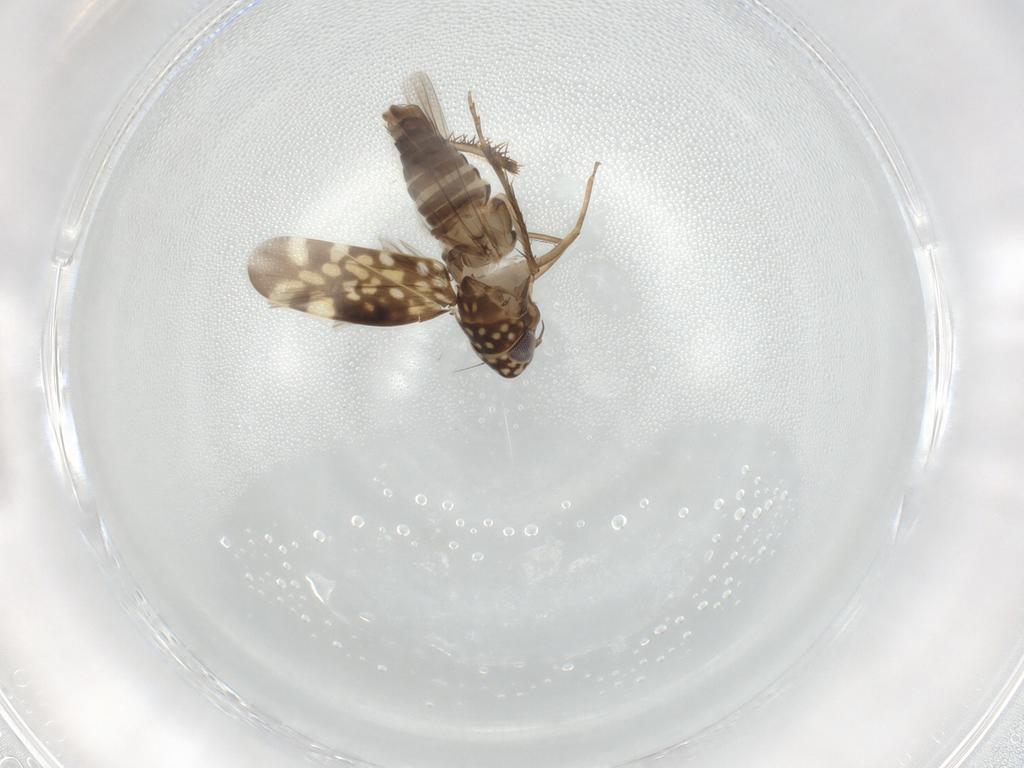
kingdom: Animalia
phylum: Arthropoda
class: Insecta
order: Hemiptera
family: Cicadellidae
